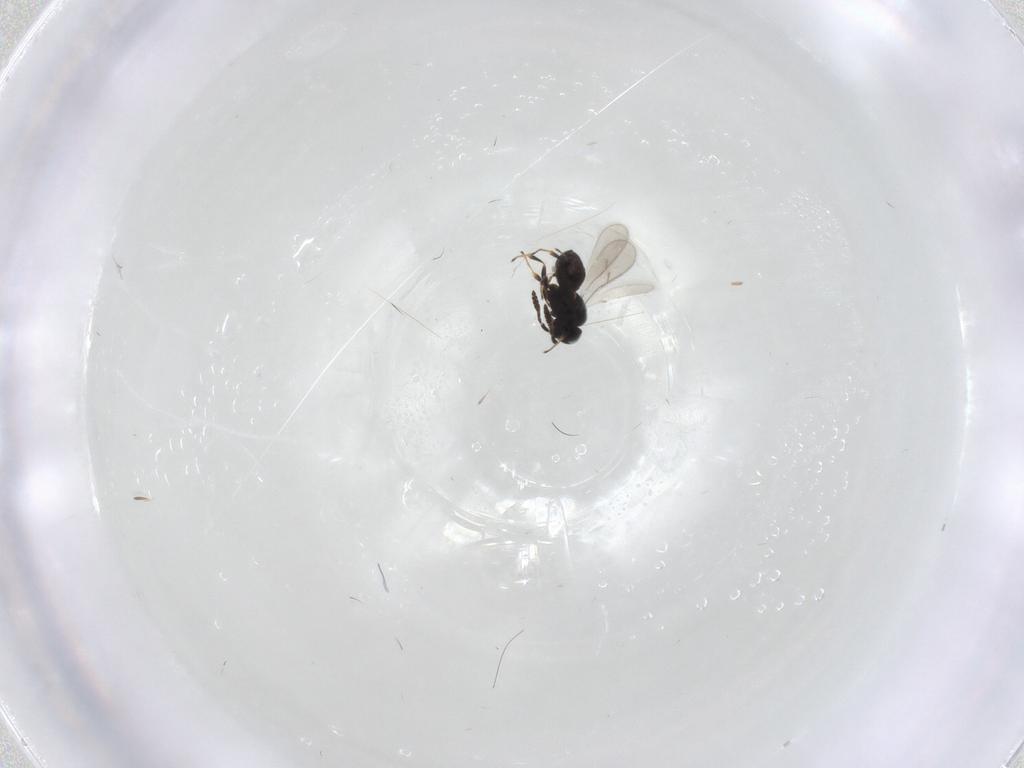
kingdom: Animalia
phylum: Arthropoda
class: Insecta
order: Hymenoptera
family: Scelionidae
